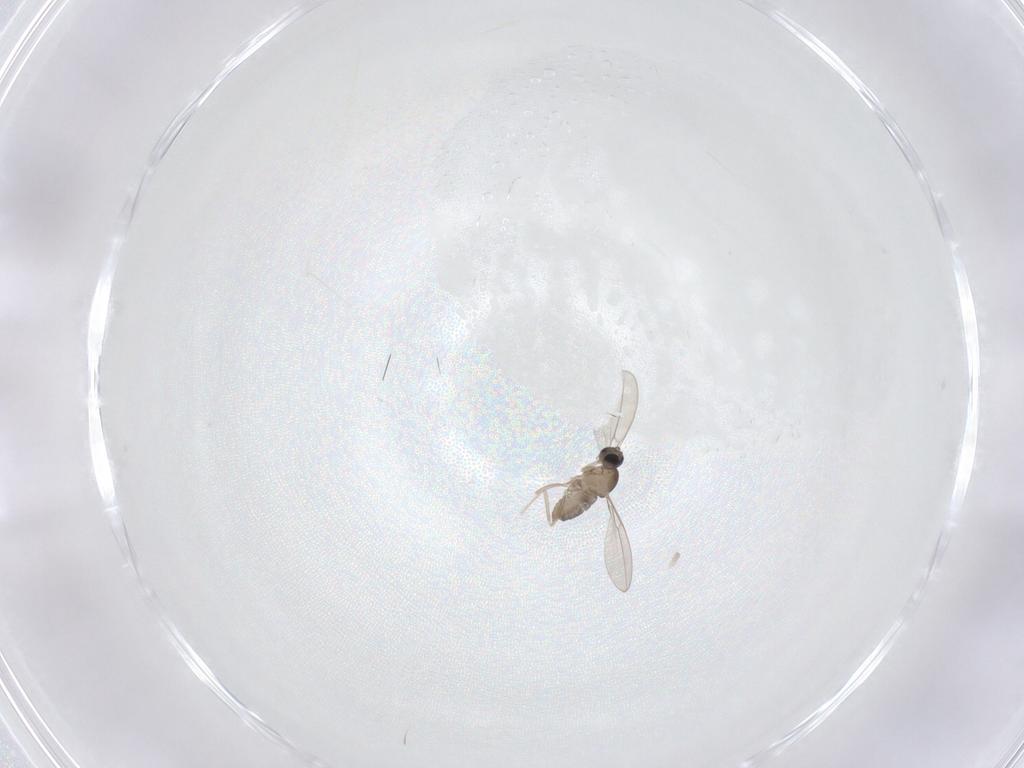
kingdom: Animalia
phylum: Arthropoda
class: Insecta
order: Diptera
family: Cecidomyiidae
